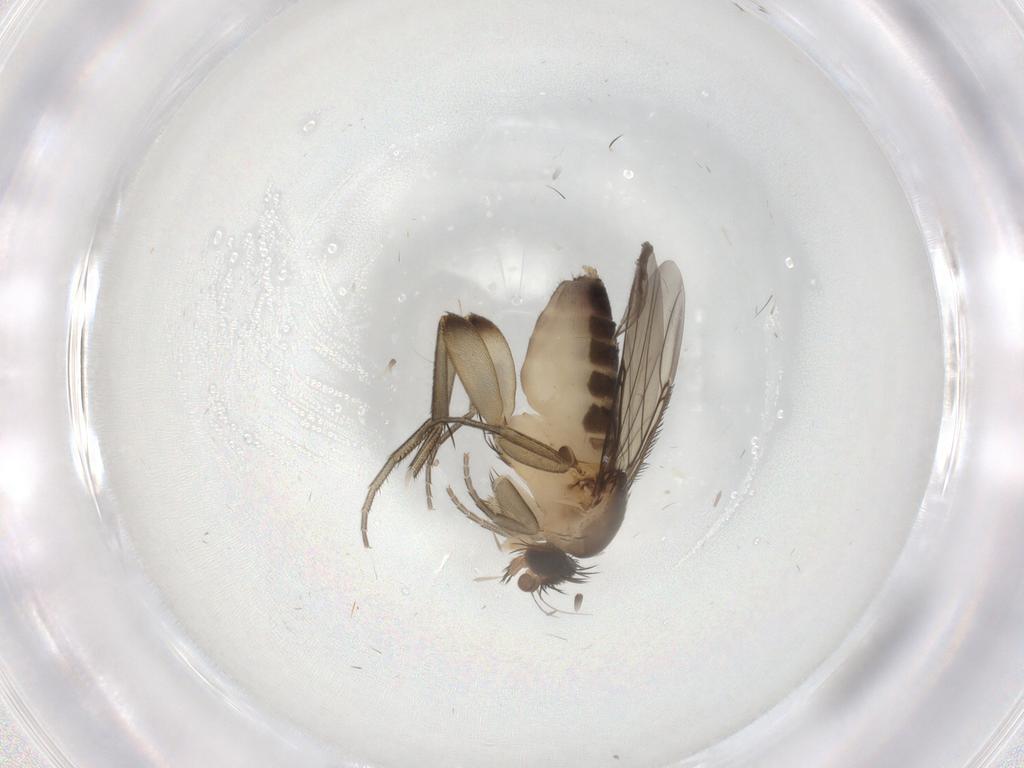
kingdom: Animalia
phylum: Arthropoda
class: Insecta
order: Diptera
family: Phoridae
